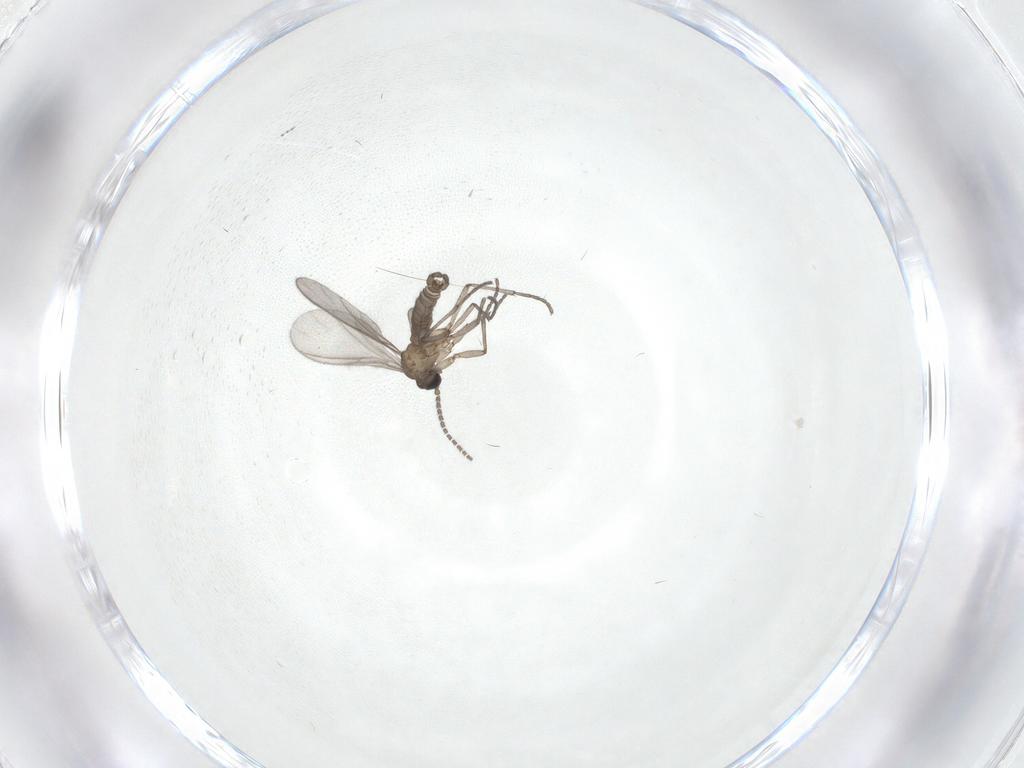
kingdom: Animalia
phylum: Arthropoda
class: Insecta
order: Diptera
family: Cecidomyiidae
